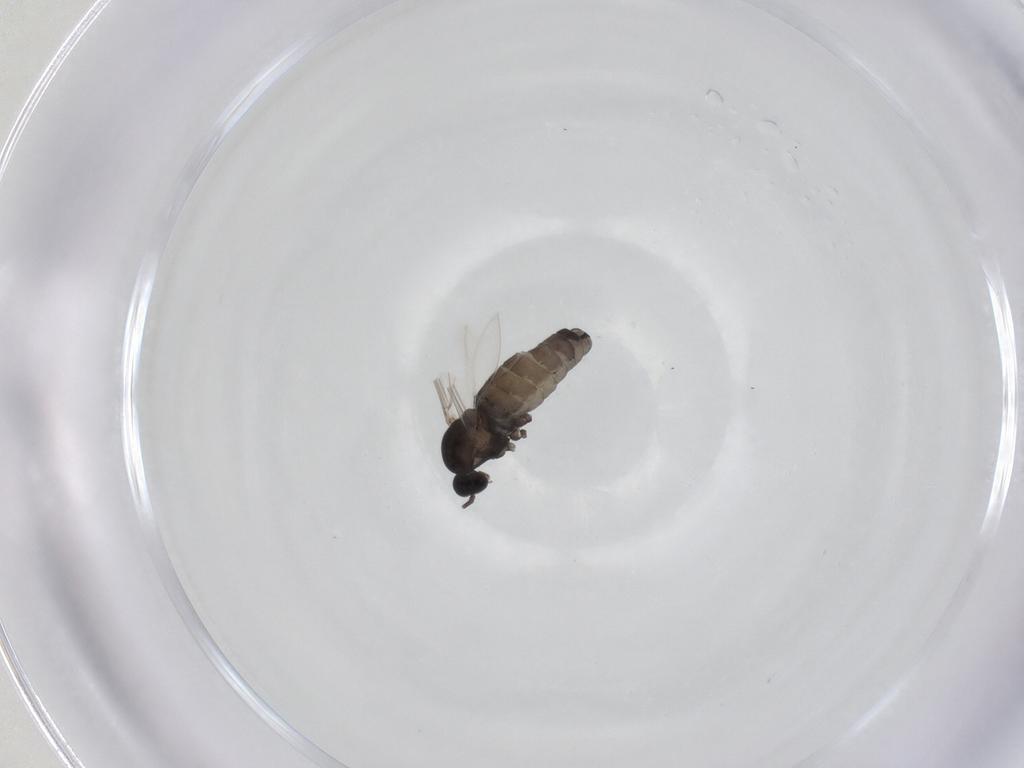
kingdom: Animalia
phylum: Arthropoda
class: Insecta
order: Diptera
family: Cecidomyiidae
